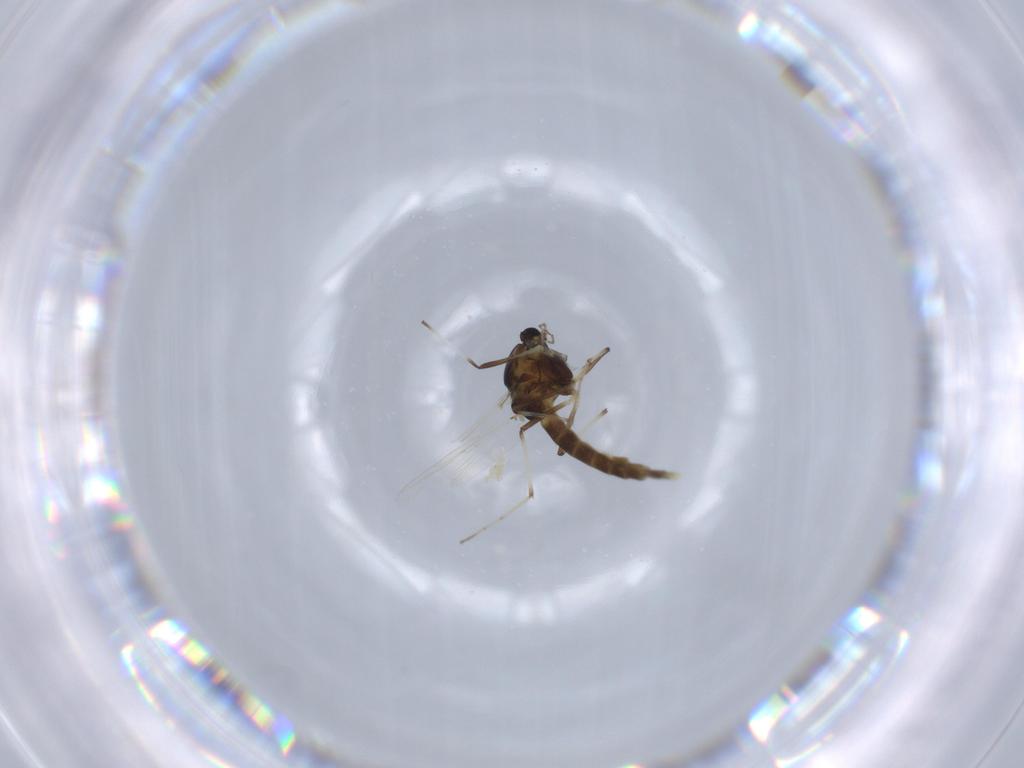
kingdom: Animalia
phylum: Arthropoda
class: Insecta
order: Diptera
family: Chironomidae
